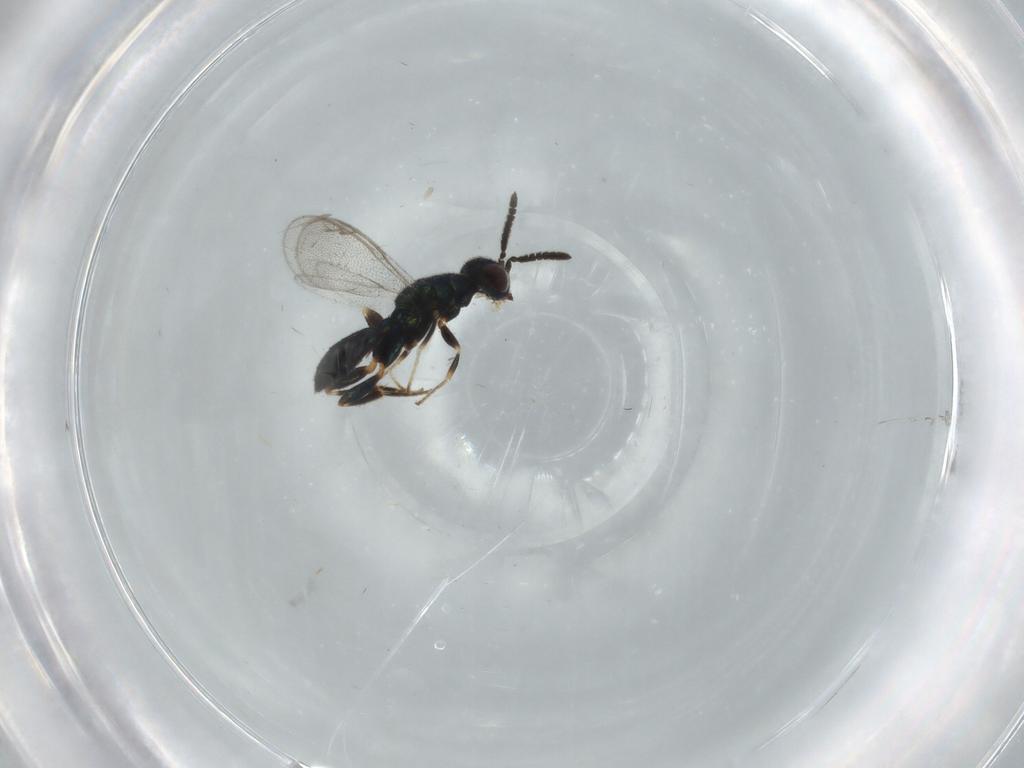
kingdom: Animalia
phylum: Arthropoda
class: Insecta
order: Hymenoptera
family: Cleonyminae
